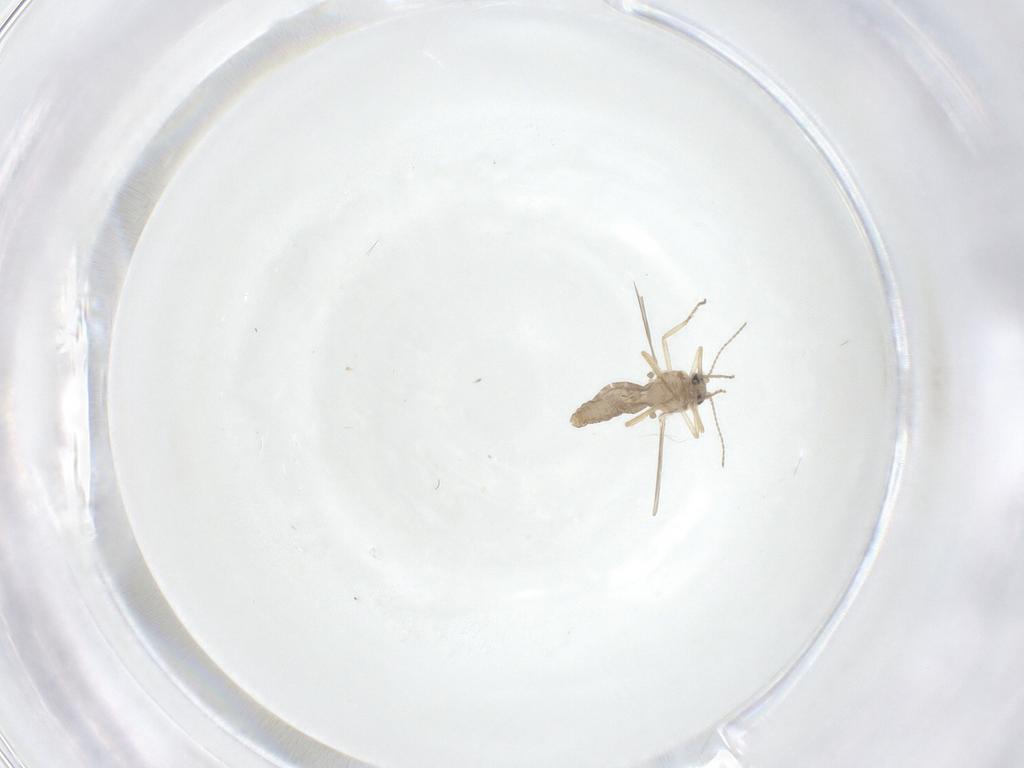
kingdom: Animalia
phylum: Arthropoda
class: Insecta
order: Diptera
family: Ceratopogonidae
